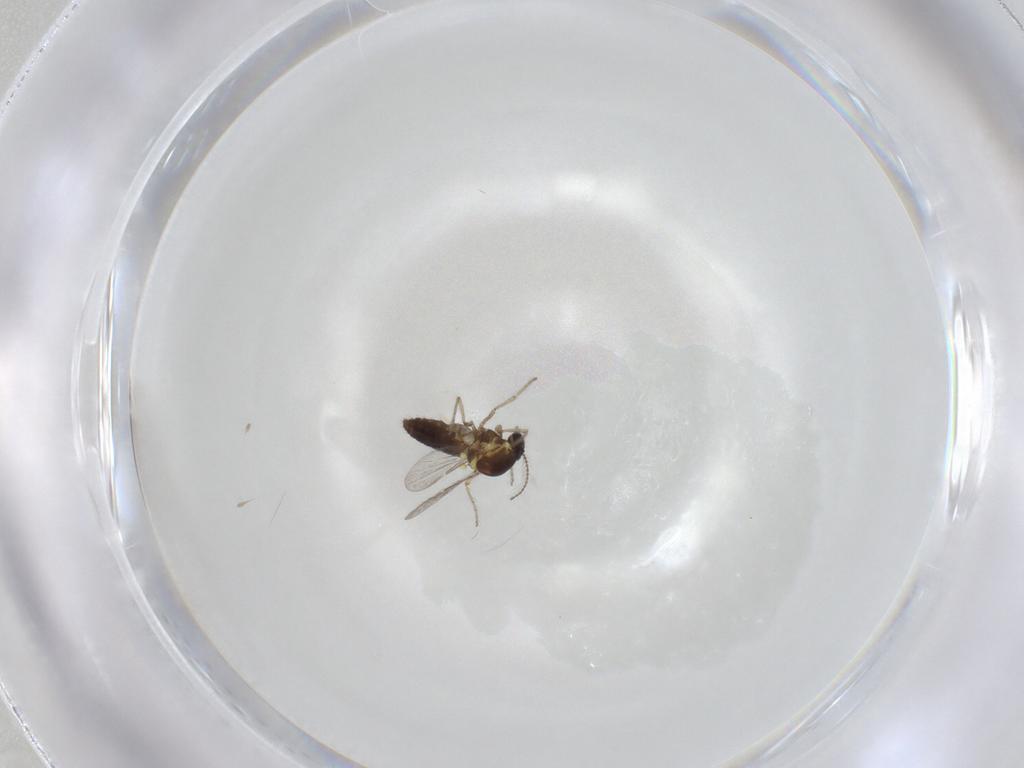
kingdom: Animalia
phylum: Arthropoda
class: Insecta
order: Diptera
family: Ceratopogonidae
